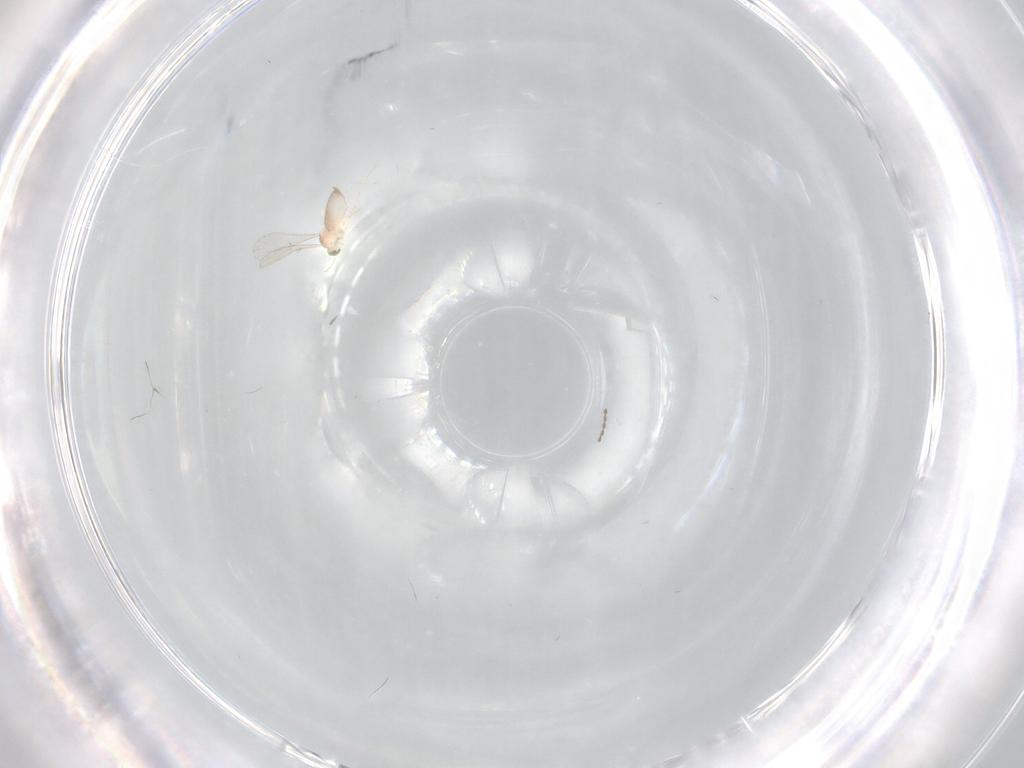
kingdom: Animalia
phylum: Arthropoda
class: Insecta
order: Diptera
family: Cecidomyiidae
